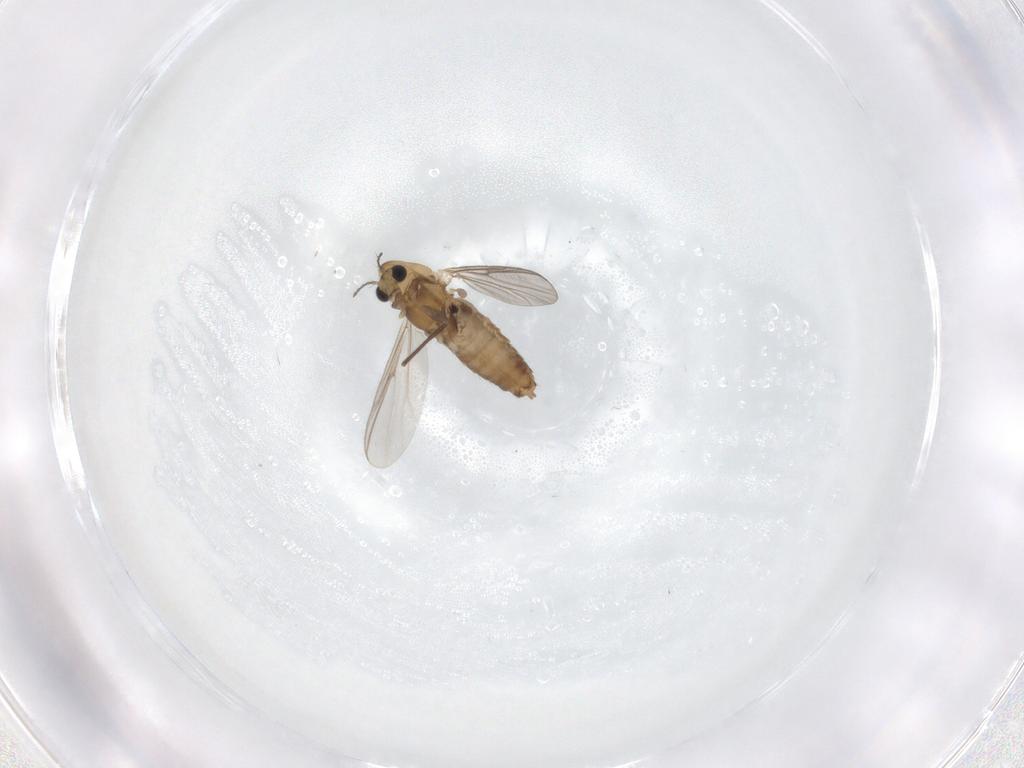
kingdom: Animalia
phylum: Arthropoda
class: Insecta
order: Diptera
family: Chironomidae
